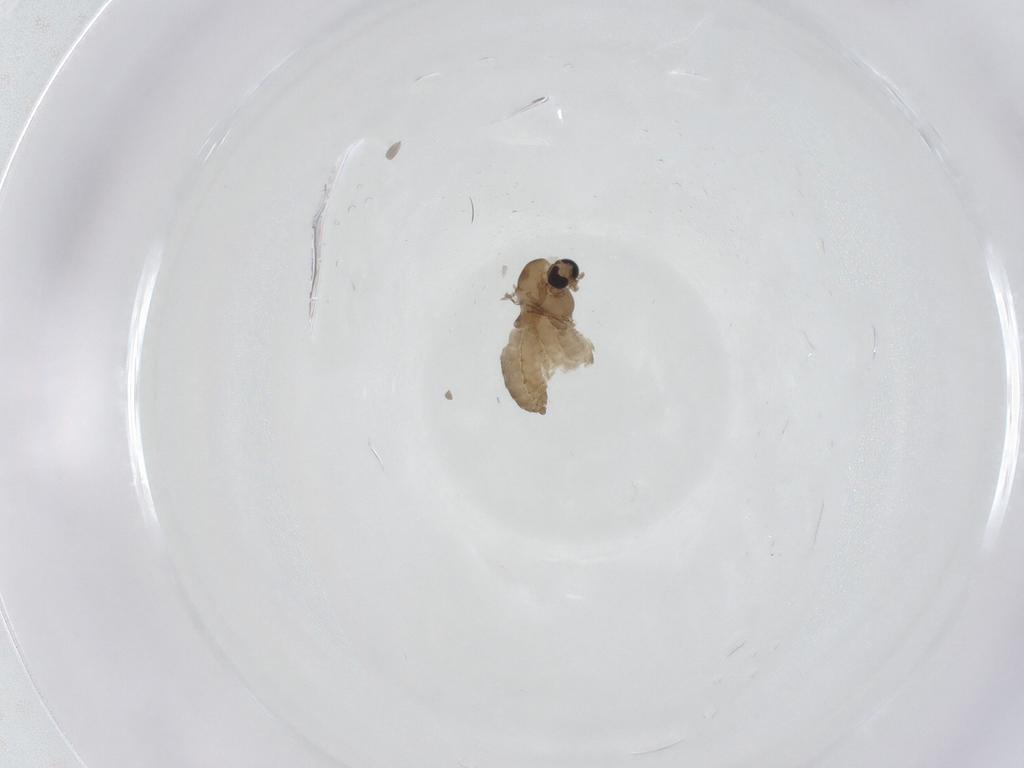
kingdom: Animalia
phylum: Arthropoda
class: Insecta
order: Diptera
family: Chironomidae
